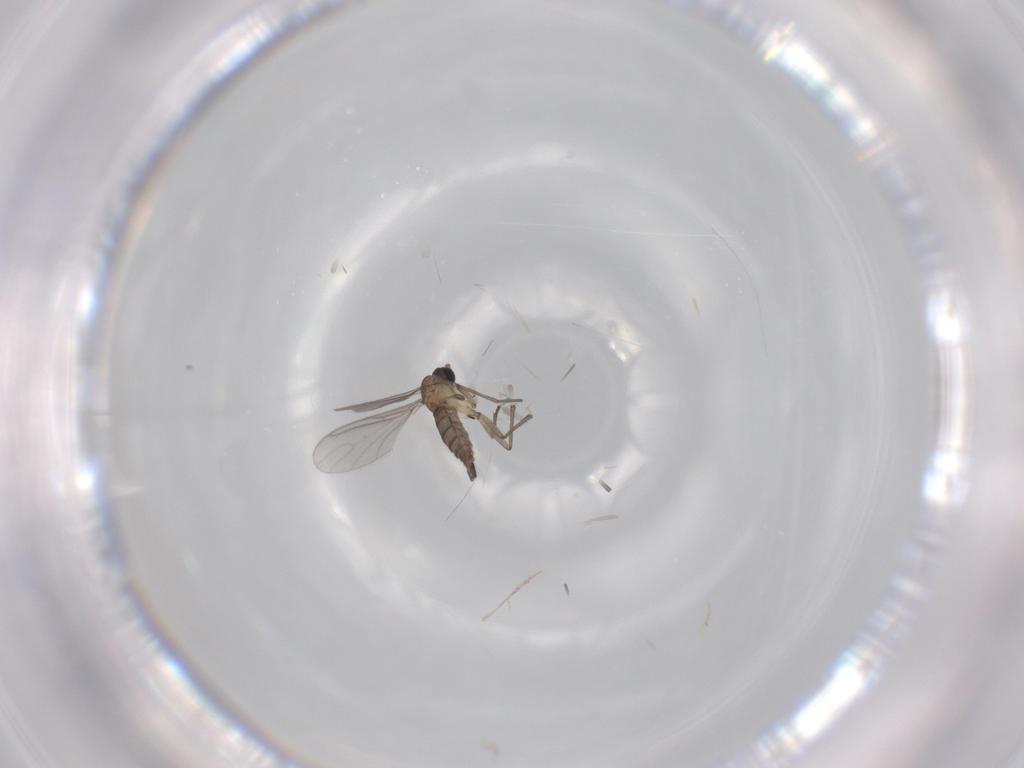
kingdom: Animalia
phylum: Arthropoda
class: Insecta
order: Diptera
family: Sciaridae
